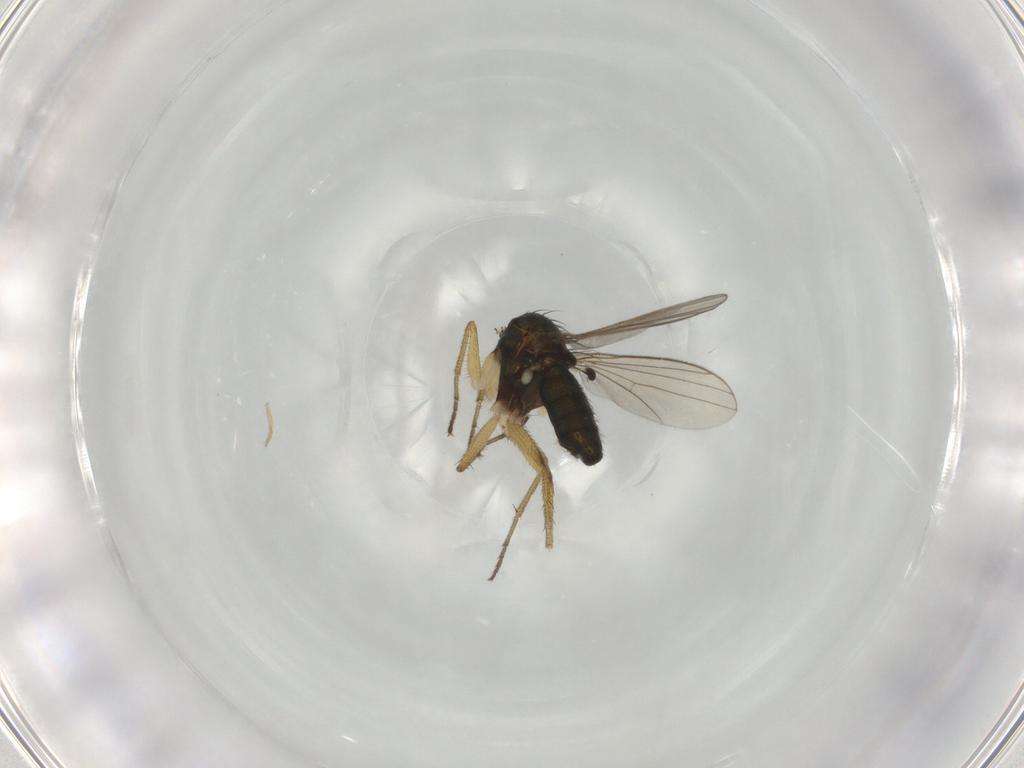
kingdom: Animalia
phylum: Arthropoda
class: Insecta
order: Diptera
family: Dolichopodidae
